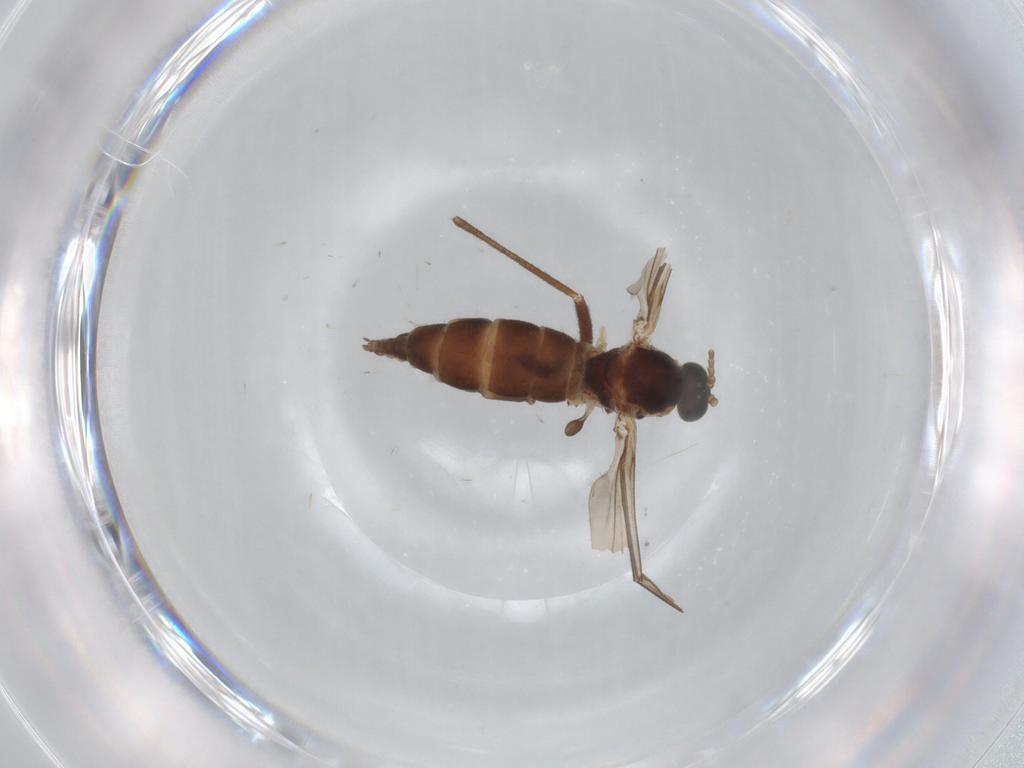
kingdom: Animalia
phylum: Arthropoda
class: Insecta
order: Diptera
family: Sciaridae
